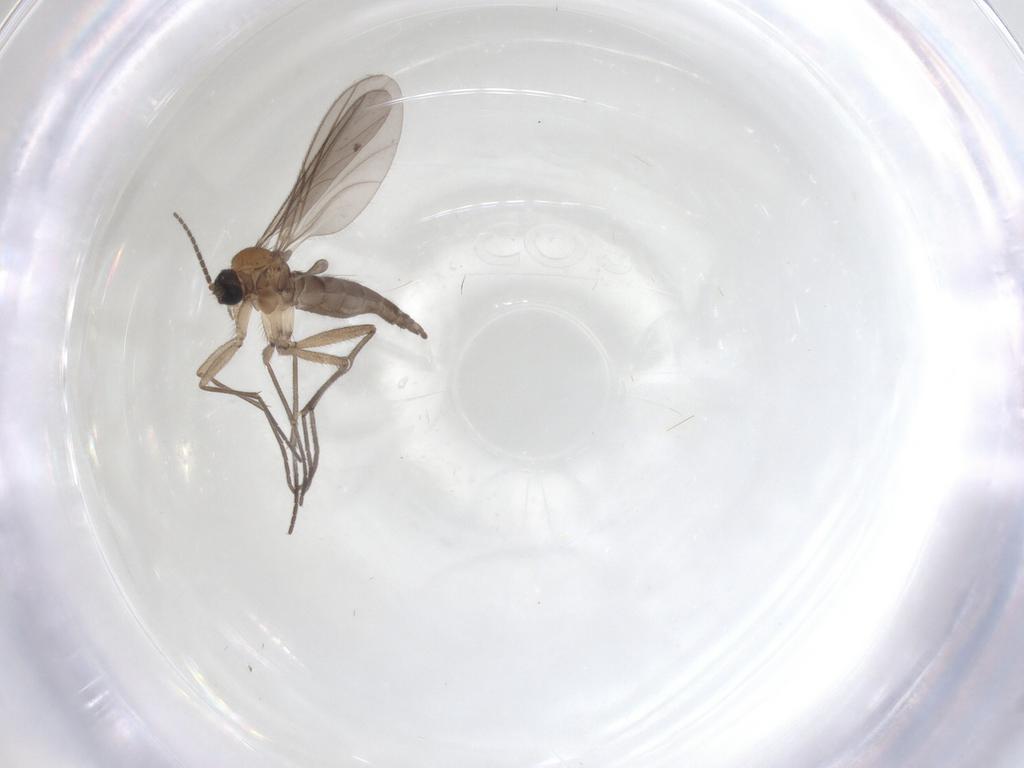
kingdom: Animalia
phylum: Arthropoda
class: Insecta
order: Diptera
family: Sciaridae
